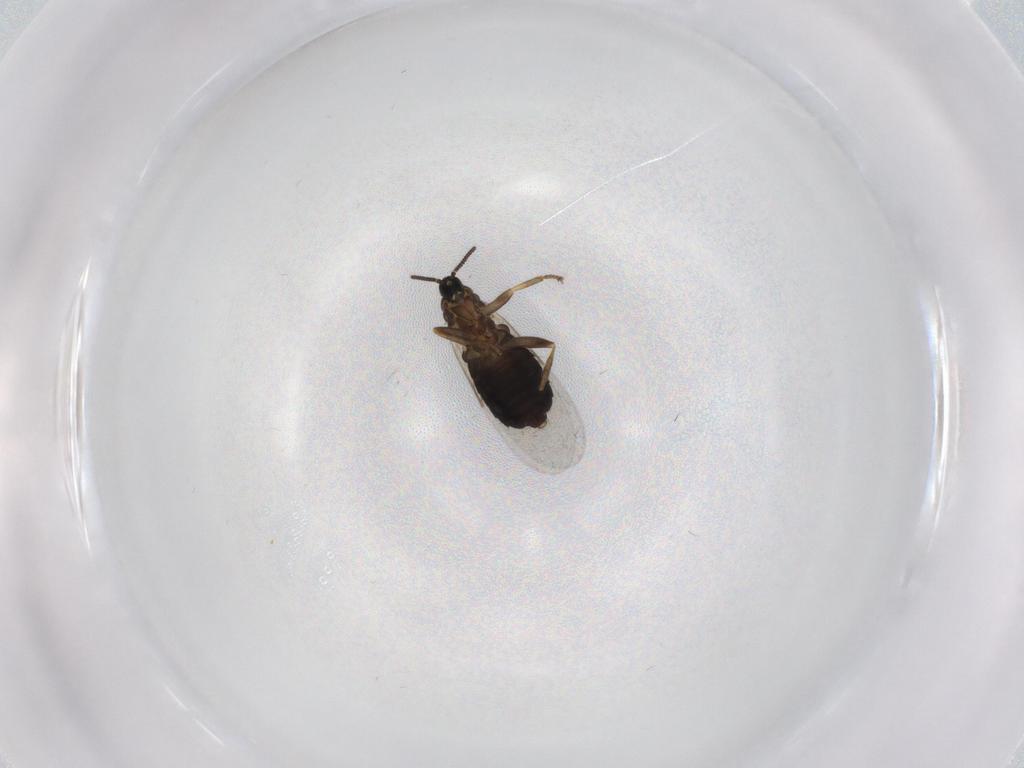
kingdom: Animalia
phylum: Arthropoda
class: Insecta
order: Diptera
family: Scatopsidae
